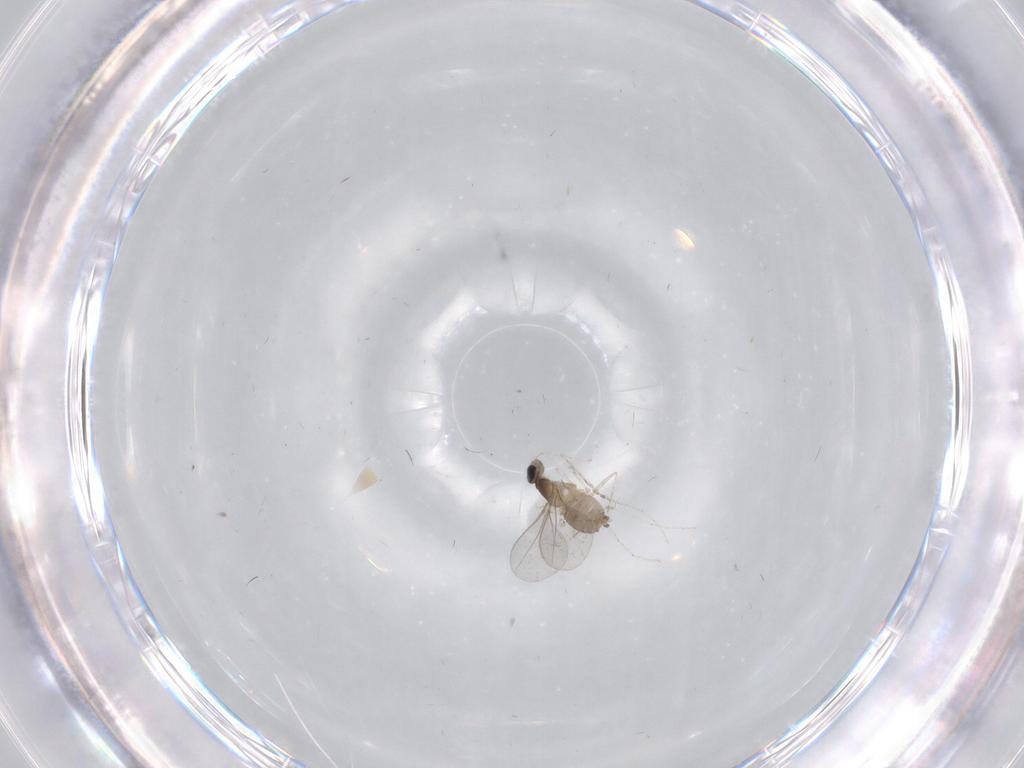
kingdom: Animalia
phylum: Arthropoda
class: Insecta
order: Diptera
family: Cecidomyiidae
